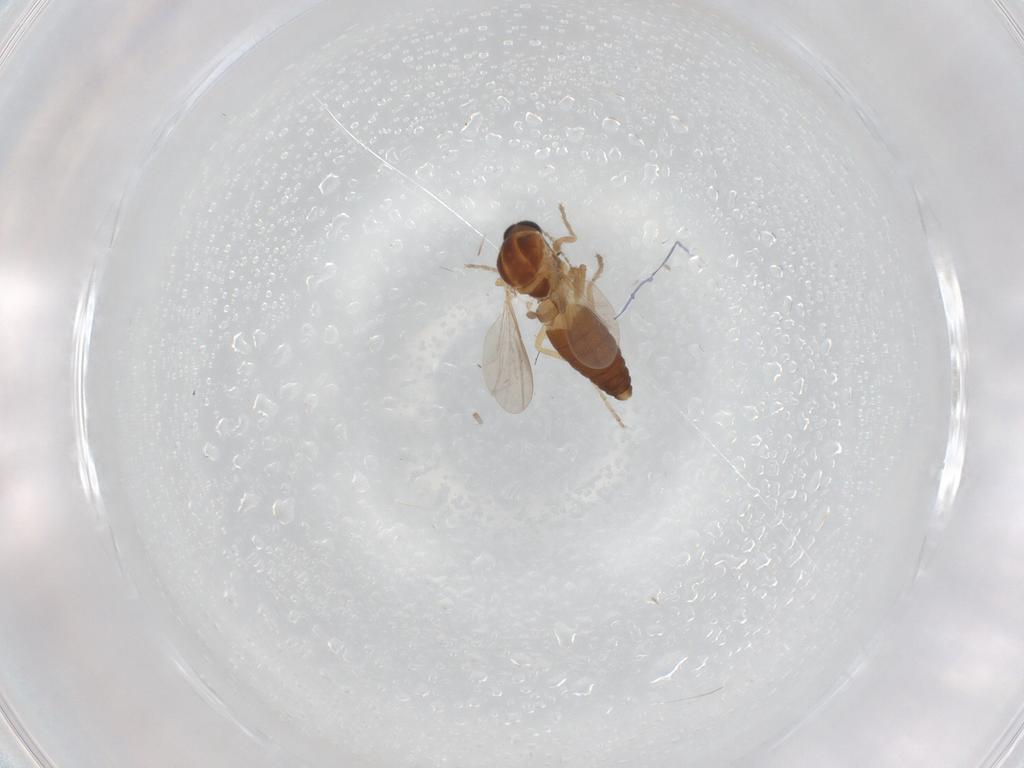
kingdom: Animalia
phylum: Arthropoda
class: Insecta
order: Diptera
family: Ceratopogonidae
